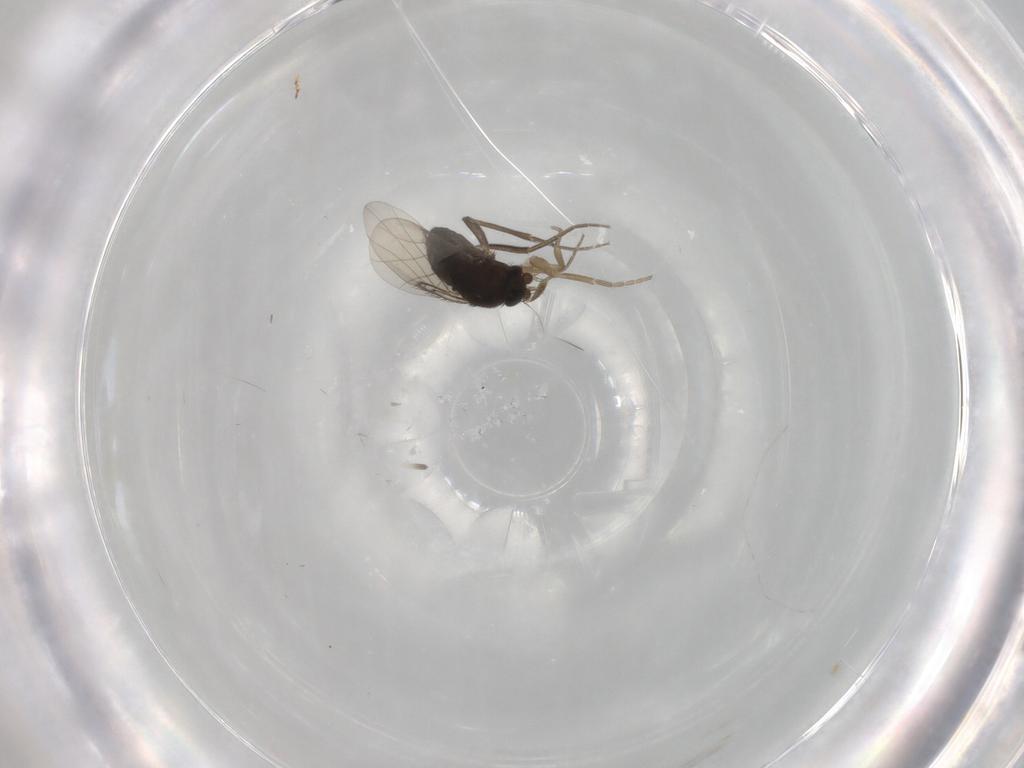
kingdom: Animalia
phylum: Arthropoda
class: Insecta
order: Diptera
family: Phoridae
